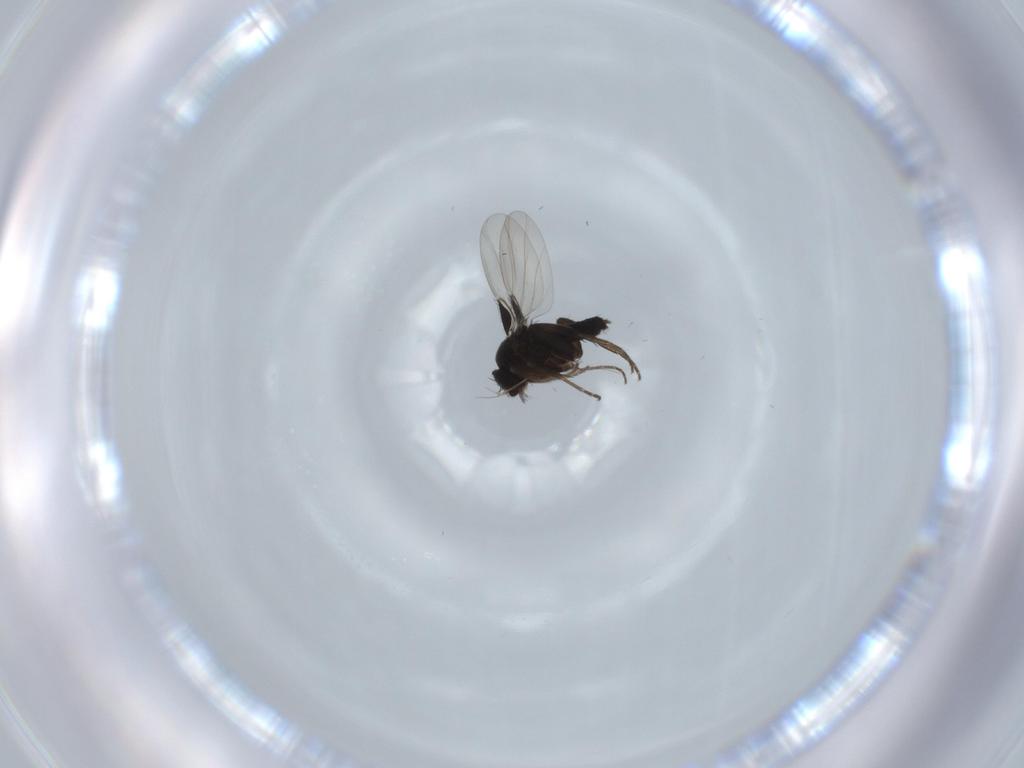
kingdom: Animalia
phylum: Arthropoda
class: Insecta
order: Diptera
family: Phoridae
